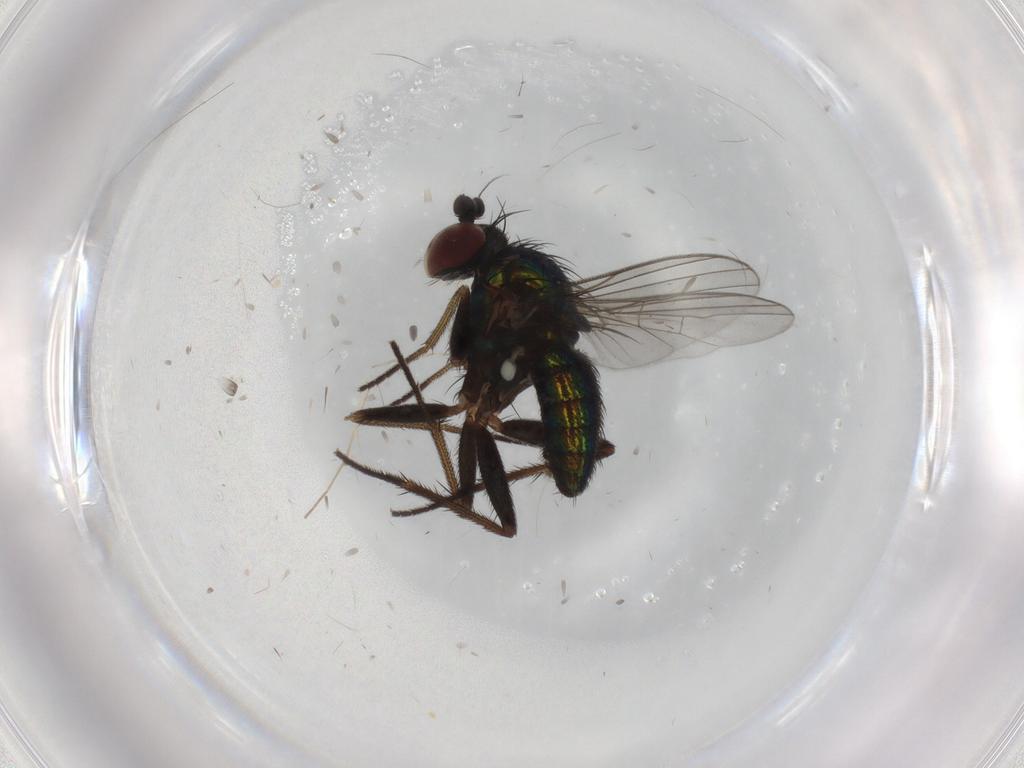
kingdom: Animalia
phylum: Arthropoda
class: Insecta
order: Diptera
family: Dolichopodidae
